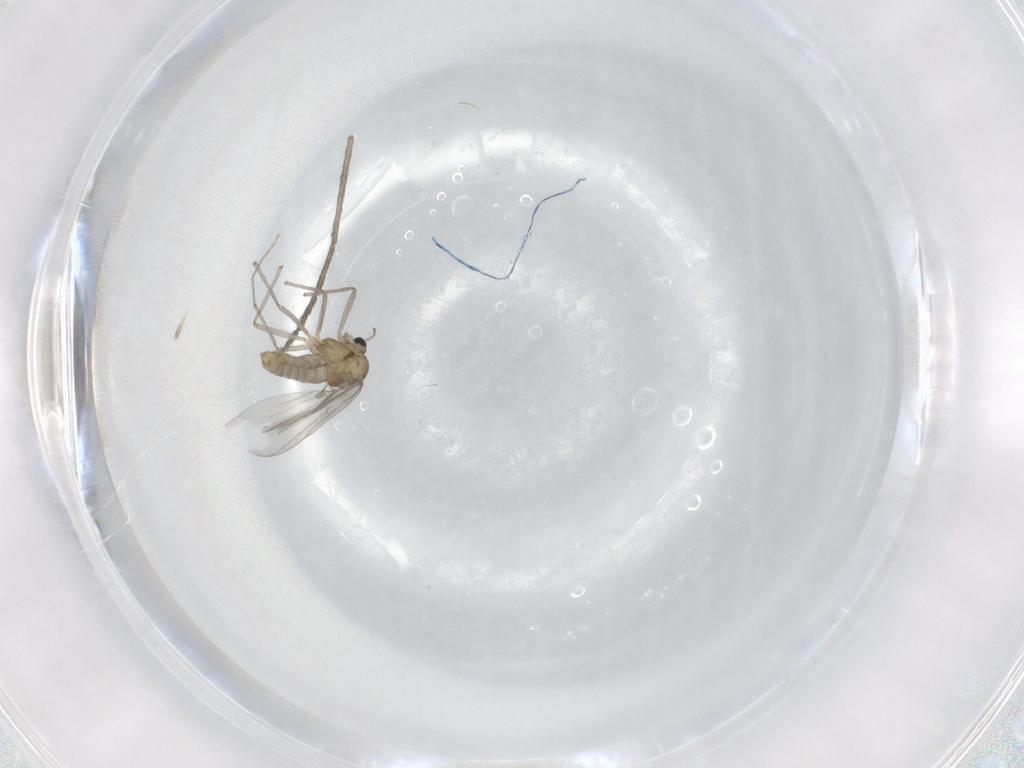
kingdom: Animalia
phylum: Arthropoda
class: Insecta
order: Diptera
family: Chironomidae
